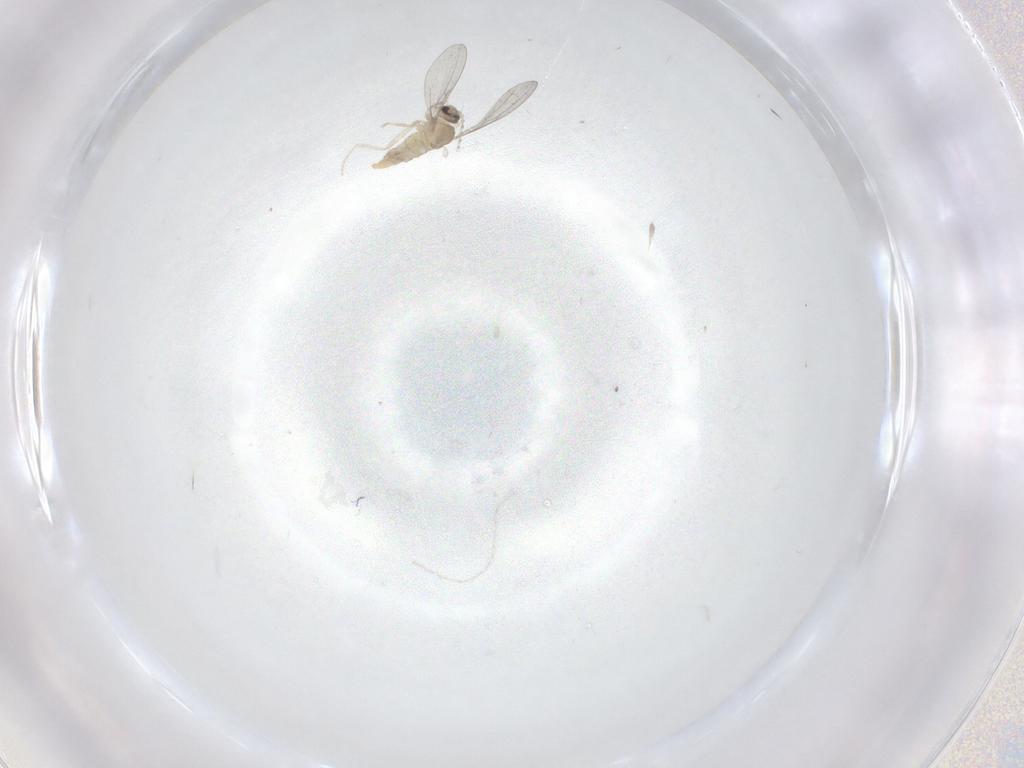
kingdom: Animalia
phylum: Arthropoda
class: Insecta
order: Diptera
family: Cecidomyiidae
